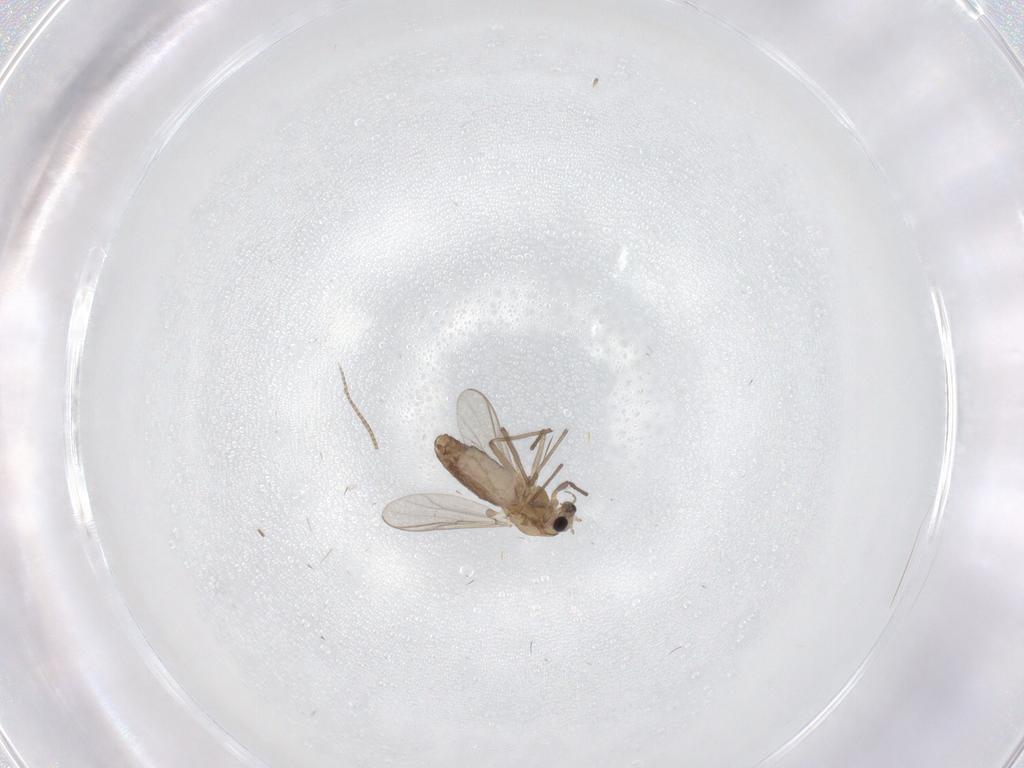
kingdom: Animalia
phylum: Arthropoda
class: Insecta
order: Diptera
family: Chironomidae
